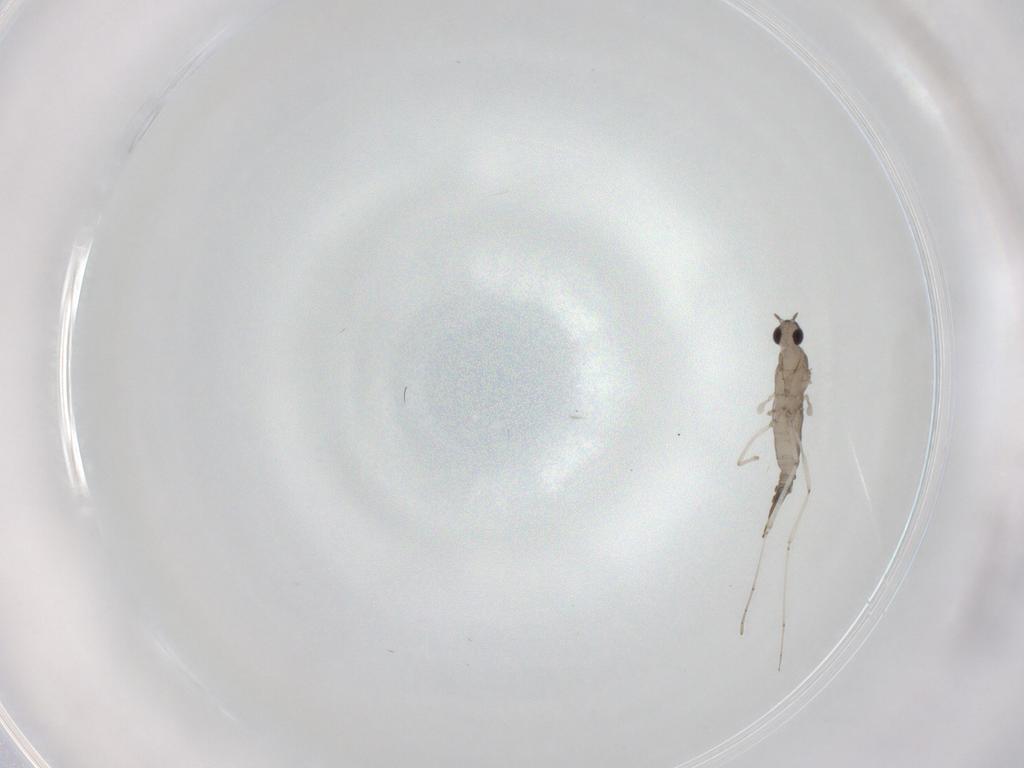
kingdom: Animalia
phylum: Arthropoda
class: Insecta
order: Diptera
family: Cecidomyiidae
